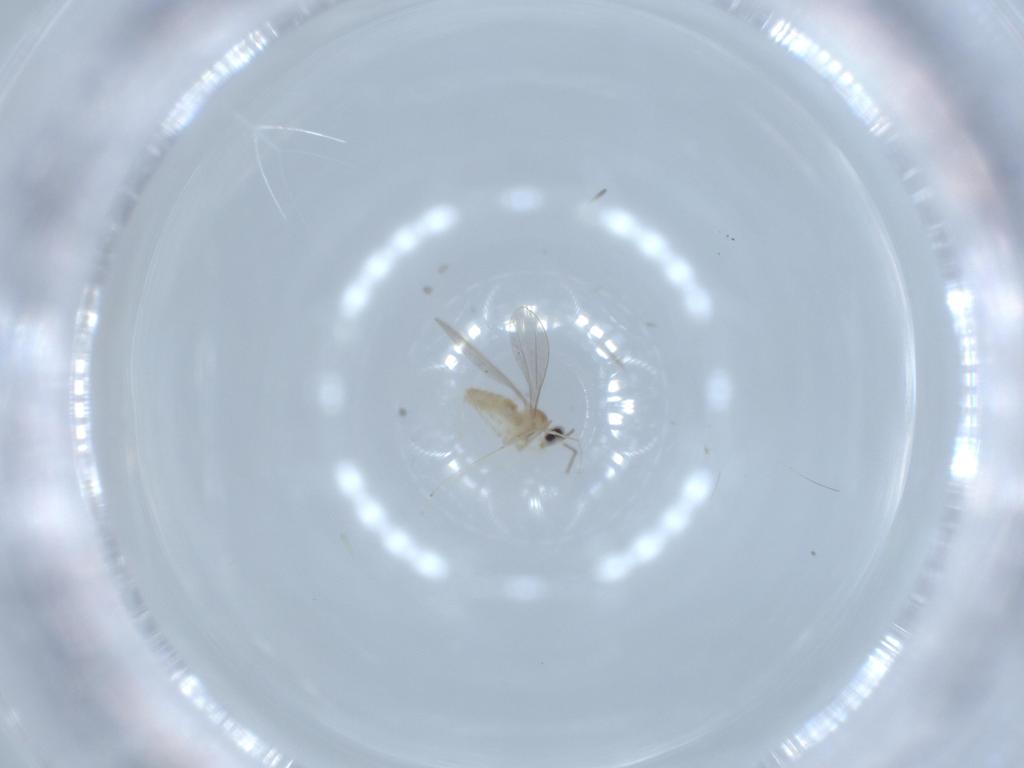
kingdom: Animalia
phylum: Arthropoda
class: Insecta
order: Diptera
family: Cecidomyiidae
